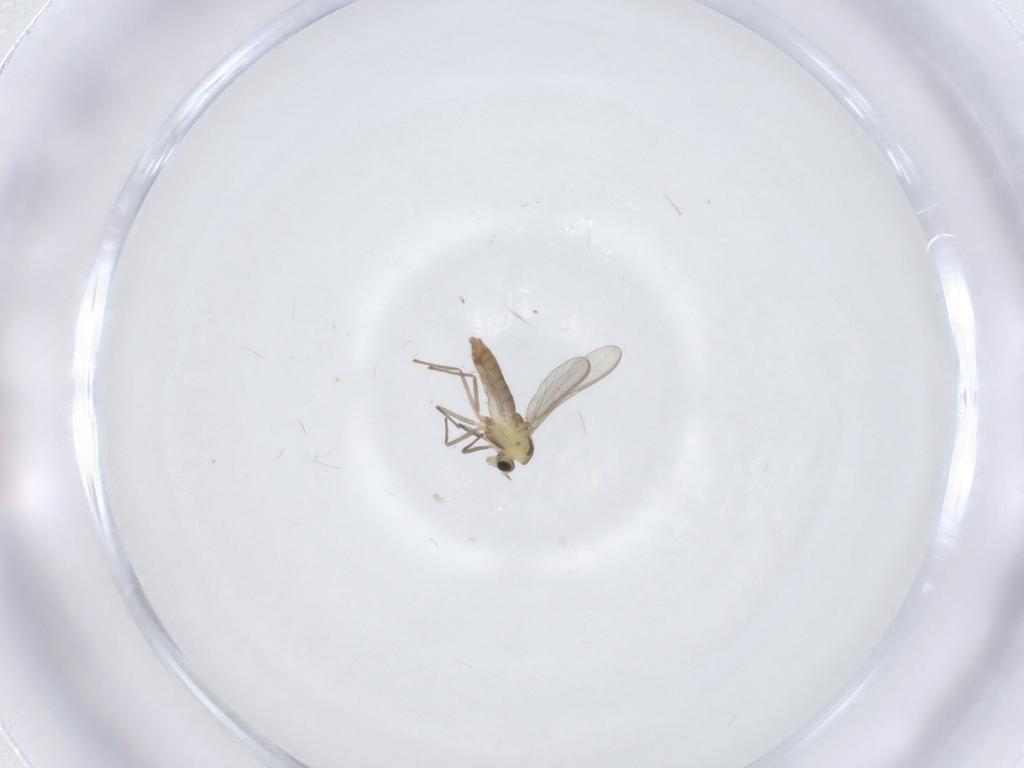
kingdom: Animalia
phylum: Arthropoda
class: Insecta
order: Diptera
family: Chironomidae
